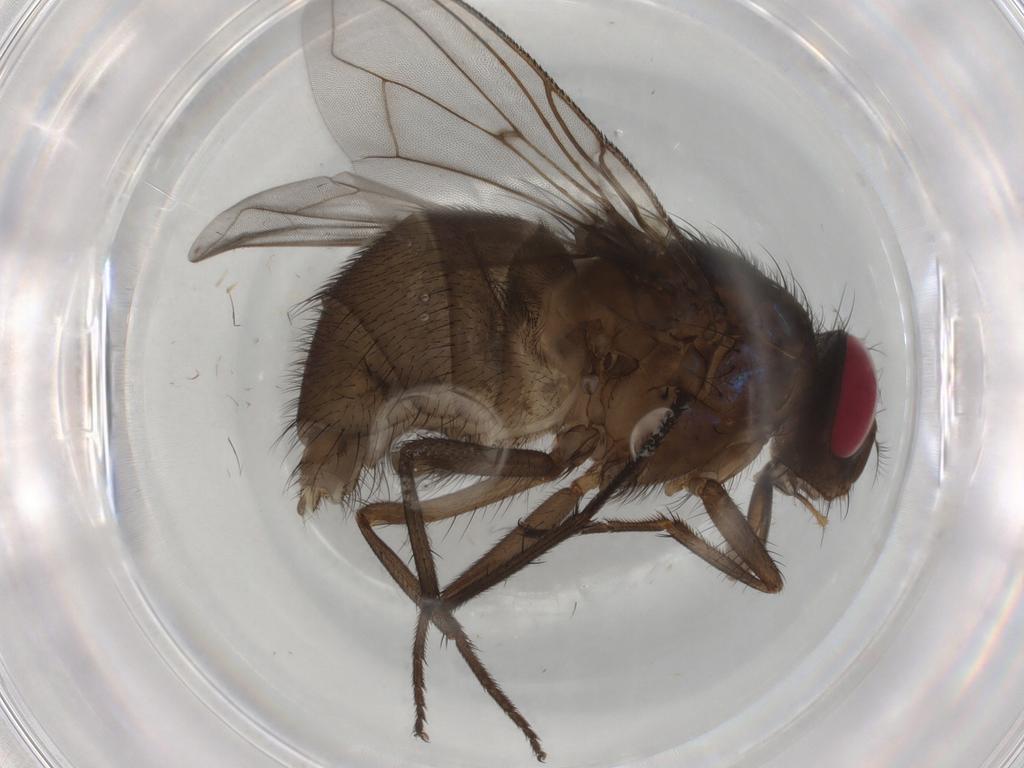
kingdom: Animalia
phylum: Arthropoda
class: Insecta
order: Diptera
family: Calliphoridae
